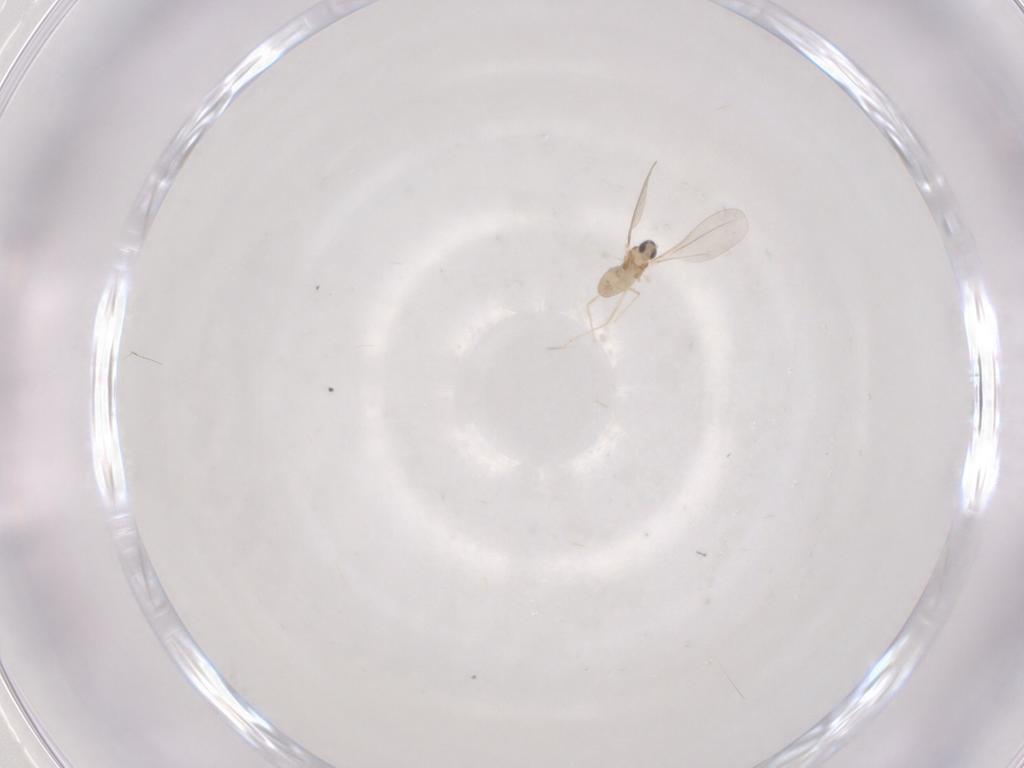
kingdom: Animalia
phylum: Arthropoda
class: Insecta
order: Diptera
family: Cecidomyiidae
